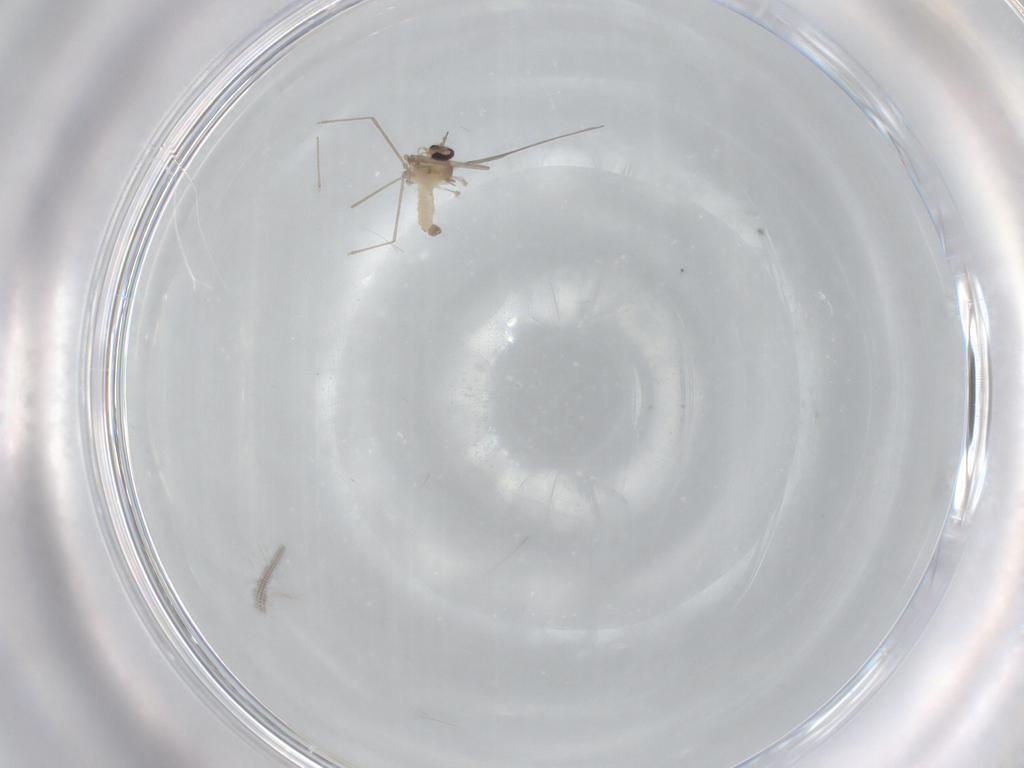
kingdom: Animalia
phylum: Arthropoda
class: Insecta
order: Diptera
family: Cecidomyiidae
